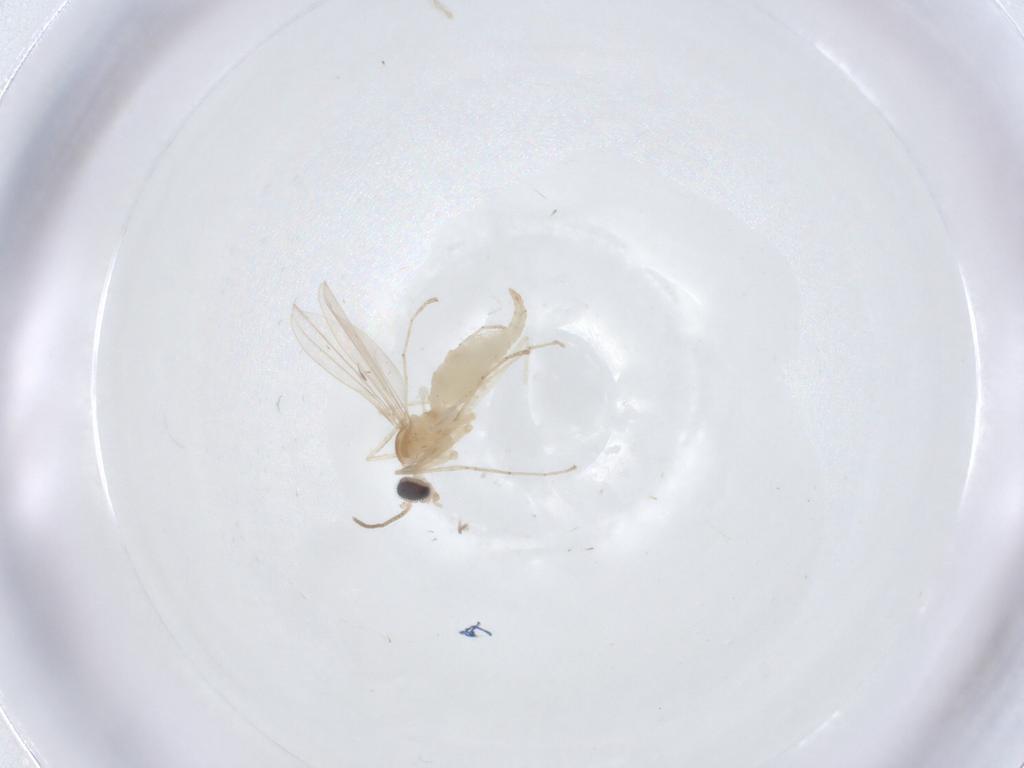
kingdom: Animalia
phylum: Arthropoda
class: Insecta
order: Diptera
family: Cecidomyiidae
